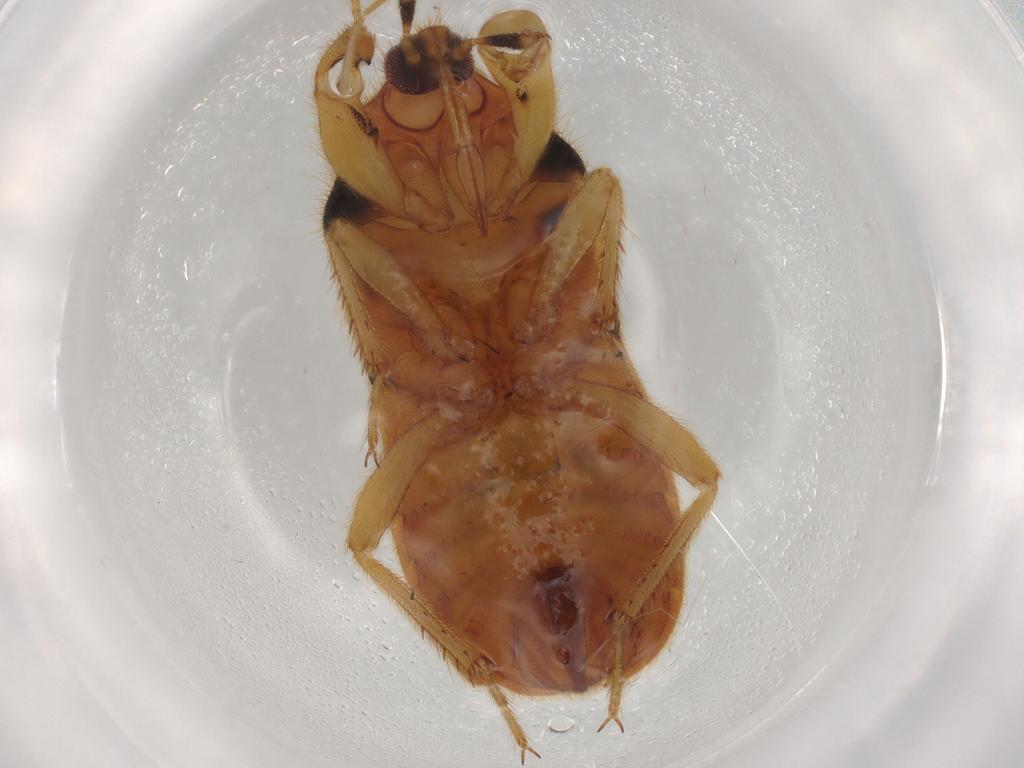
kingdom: Animalia
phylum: Arthropoda
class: Insecta
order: Hemiptera
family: Nabidae
